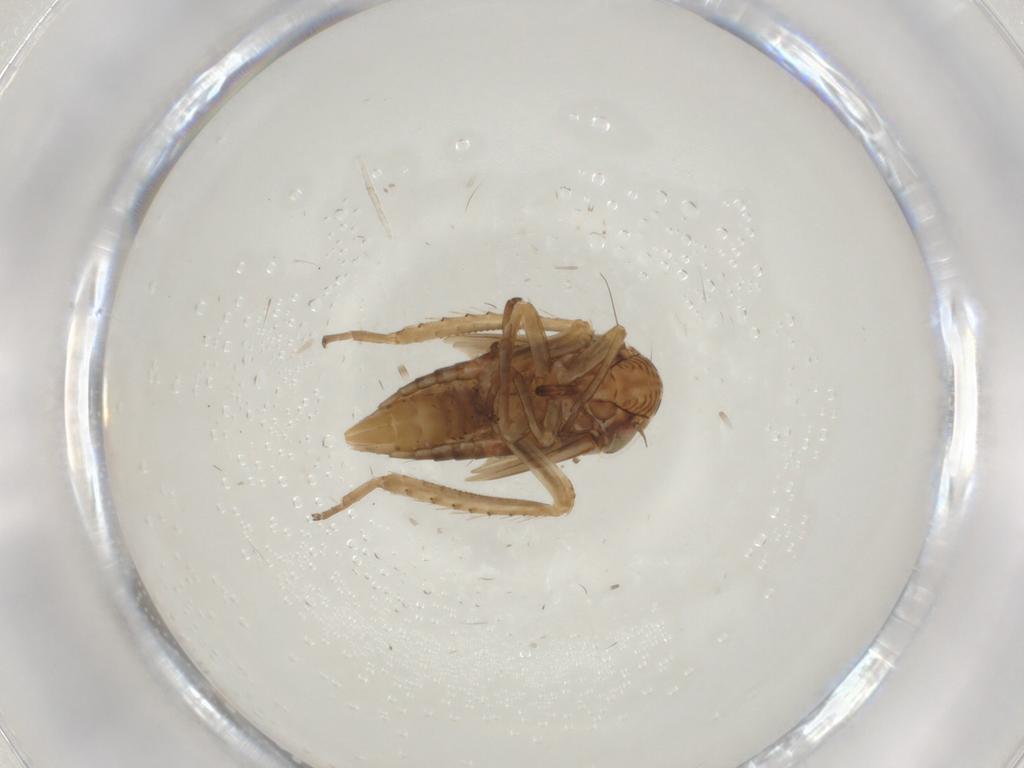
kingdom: Animalia
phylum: Arthropoda
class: Insecta
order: Hemiptera
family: Cicadellidae
